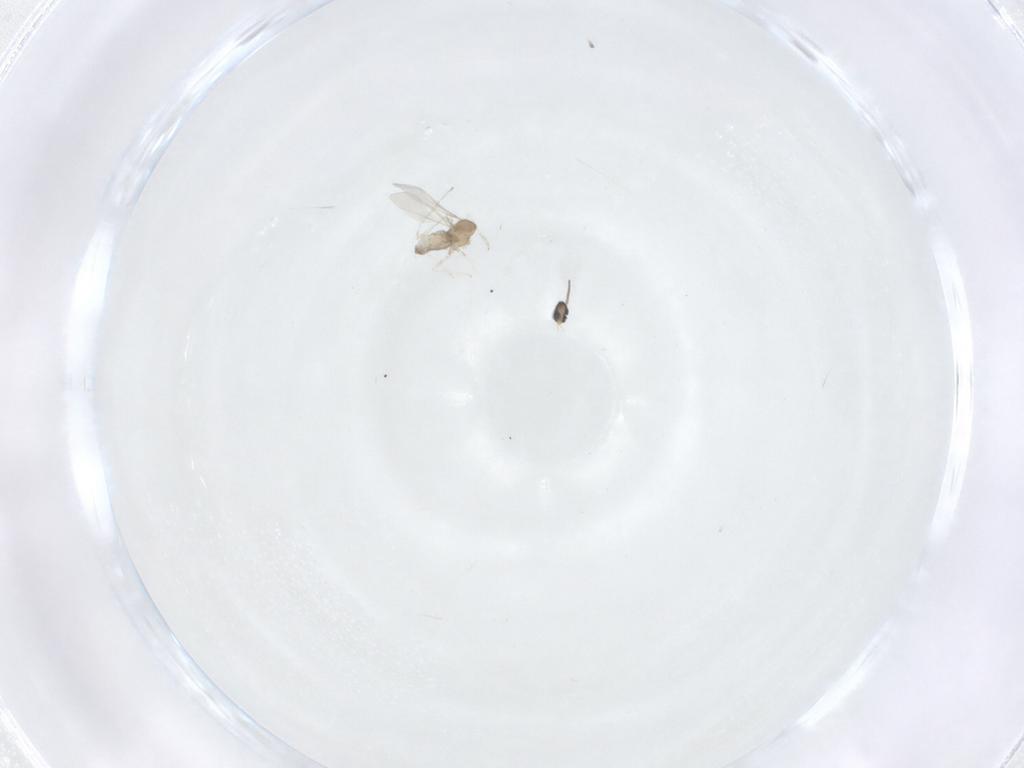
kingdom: Animalia
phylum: Arthropoda
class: Insecta
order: Diptera
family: Cecidomyiidae
